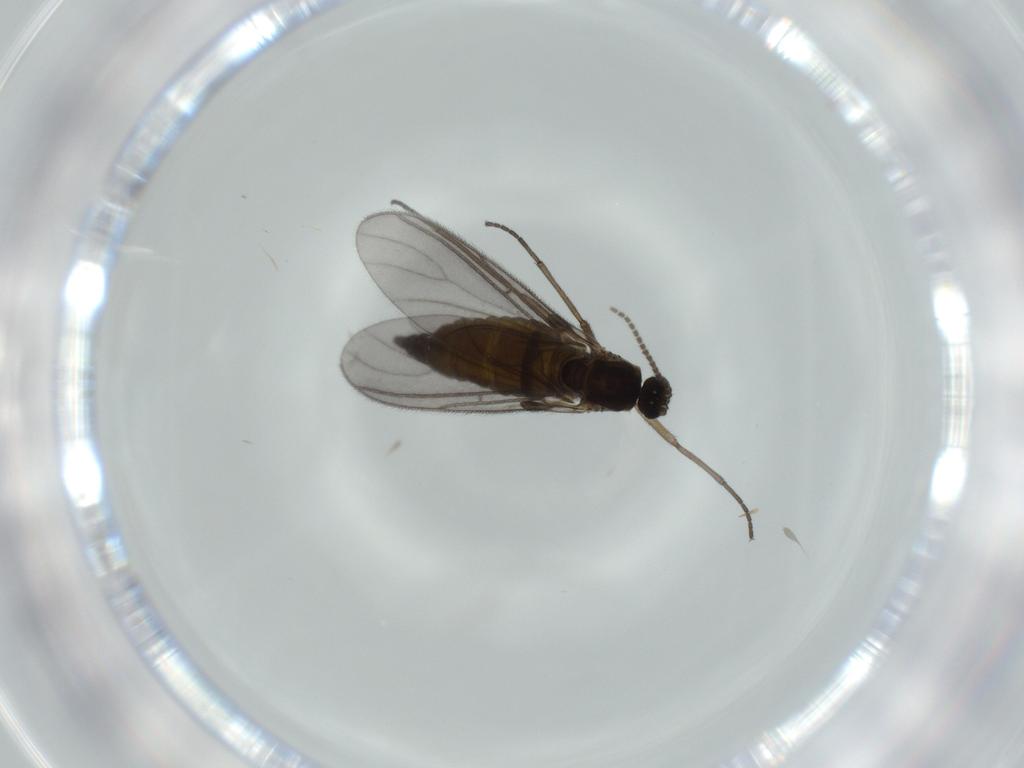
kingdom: Animalia
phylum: Arthropoda
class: Insecta
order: Diptera
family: Sciaridae
